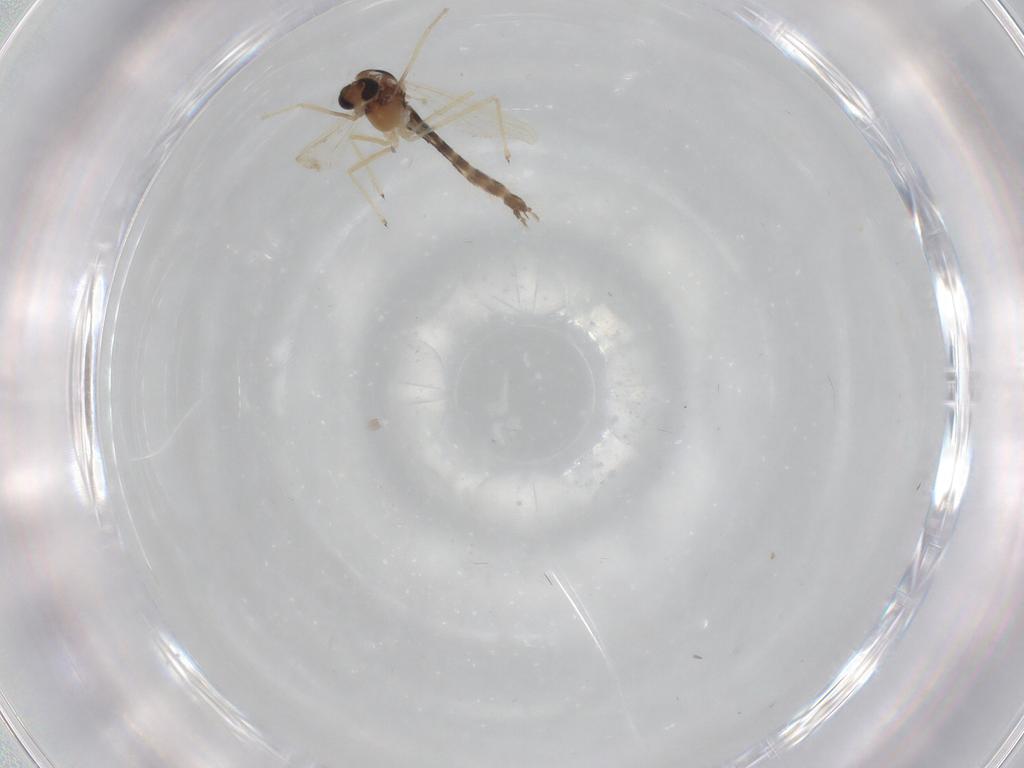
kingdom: Animalia
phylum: Arthropoda
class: Insecta
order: Diptera
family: Chironomidae
